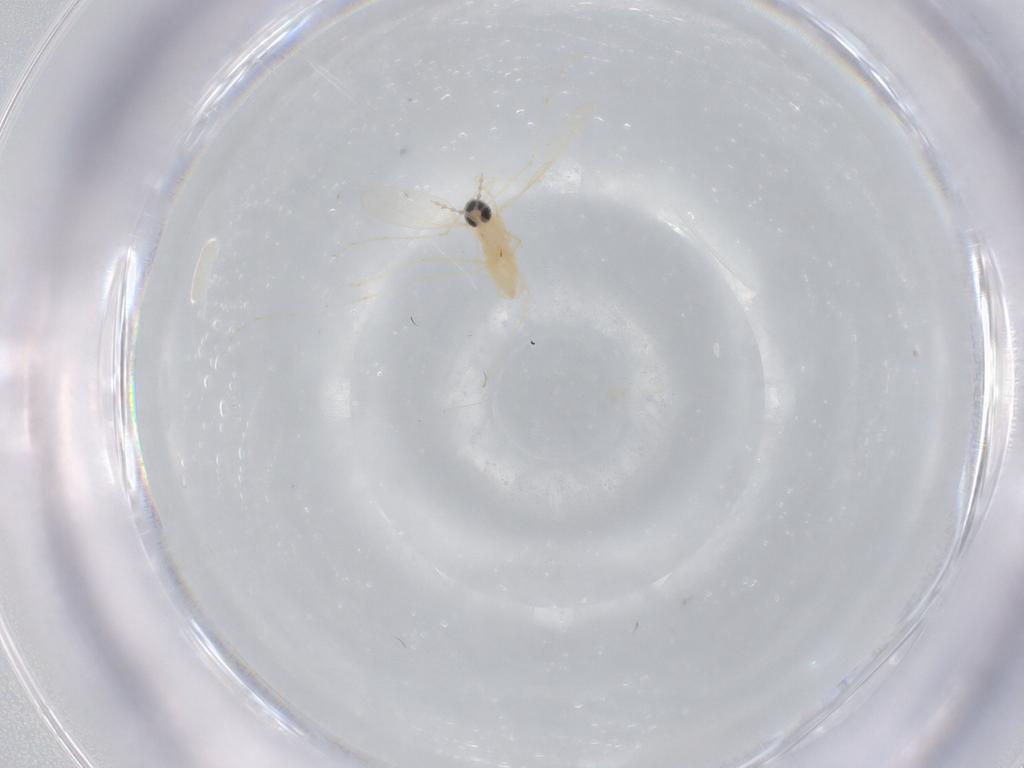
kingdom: Animalia
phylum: Arthropoda
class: Insecta
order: Diptera
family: Cecidomyiidae
